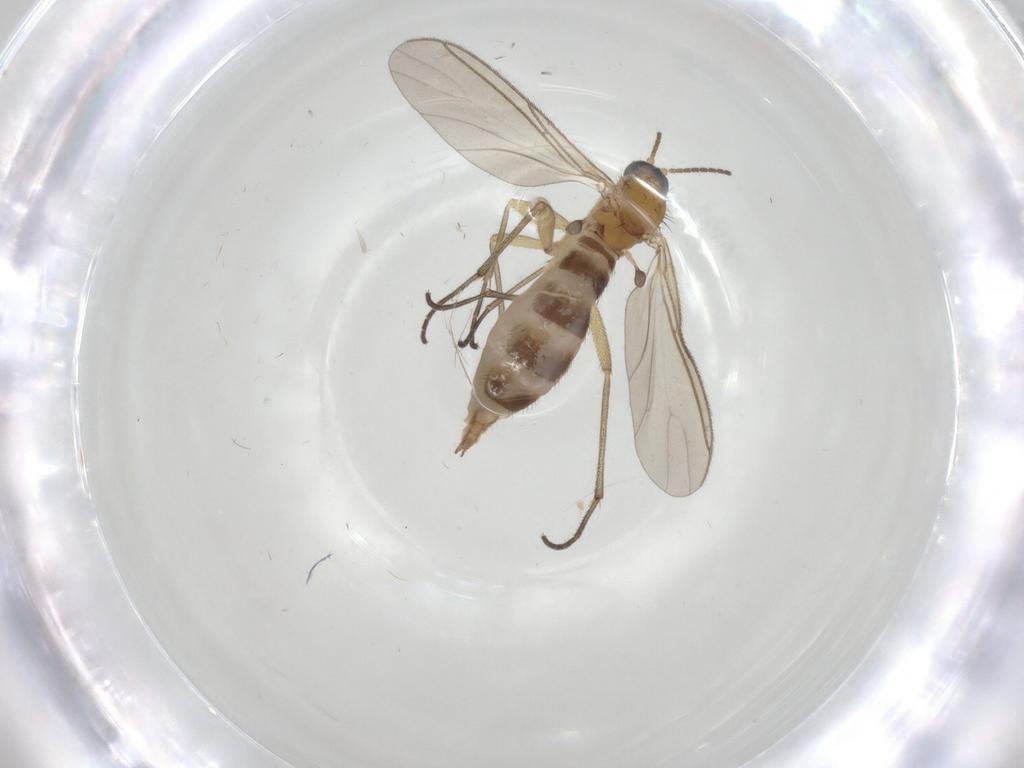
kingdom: Animalia
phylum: Arthropoda
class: Insecta
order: Diptera
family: Sciaridae
